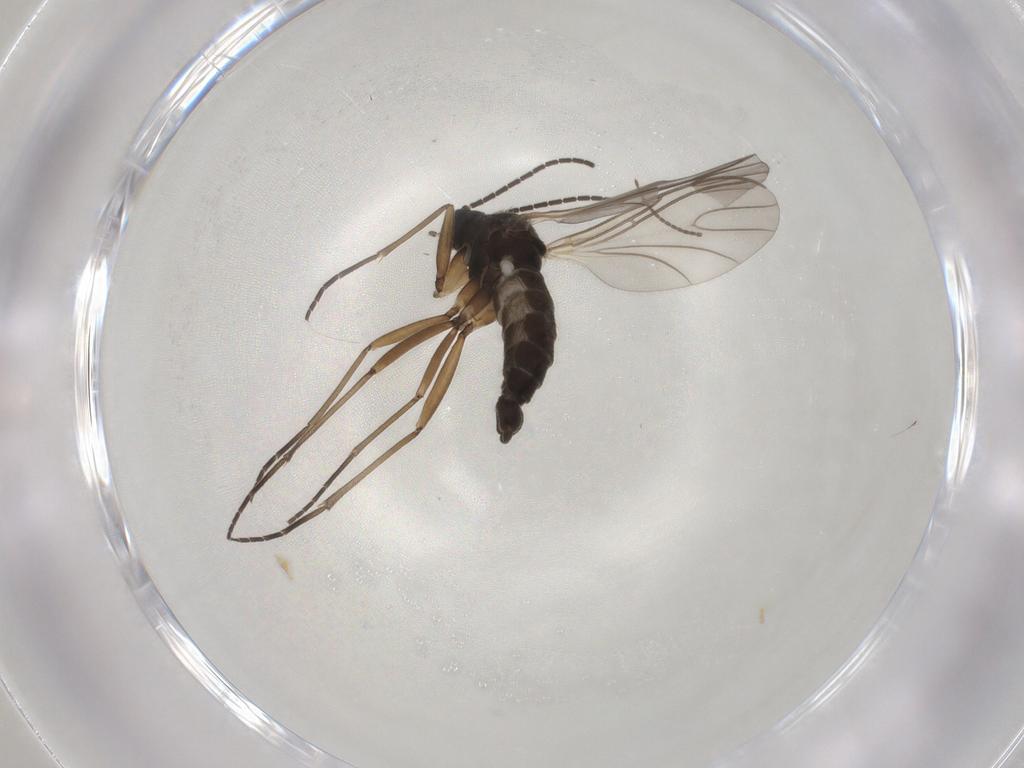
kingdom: Animalia
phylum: Arthropoda
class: Insecta
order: Diptera
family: Sciaridae
